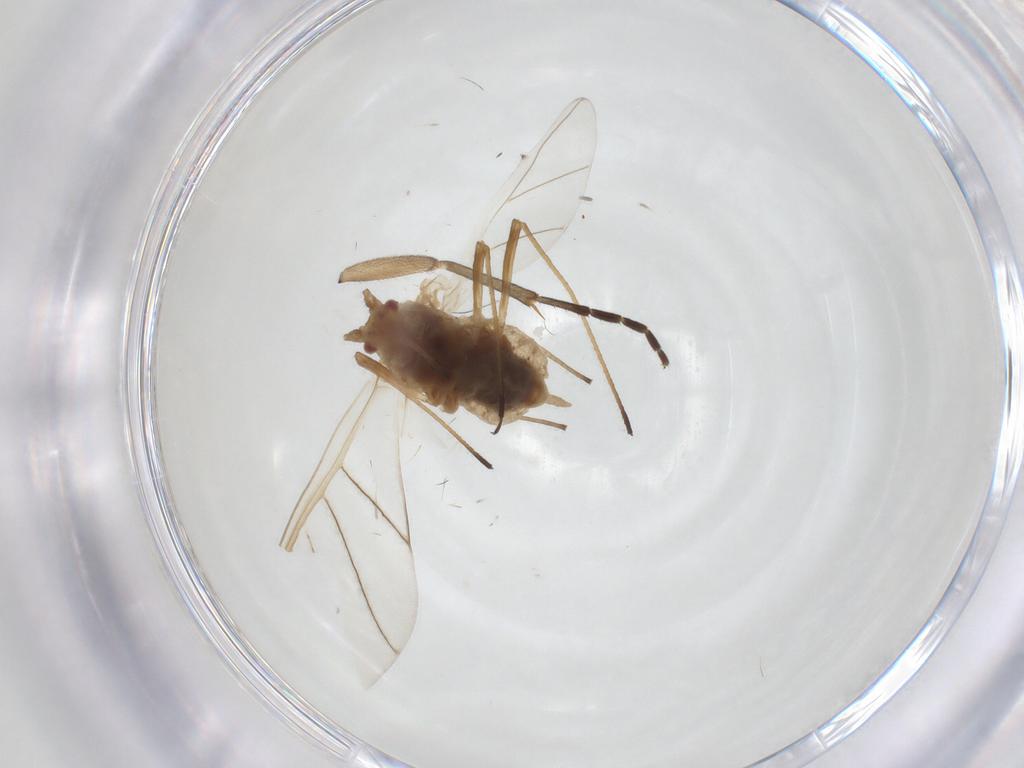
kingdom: Animalia
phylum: Arthropoda
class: Insecta
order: Hemiptera
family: Aphididae
